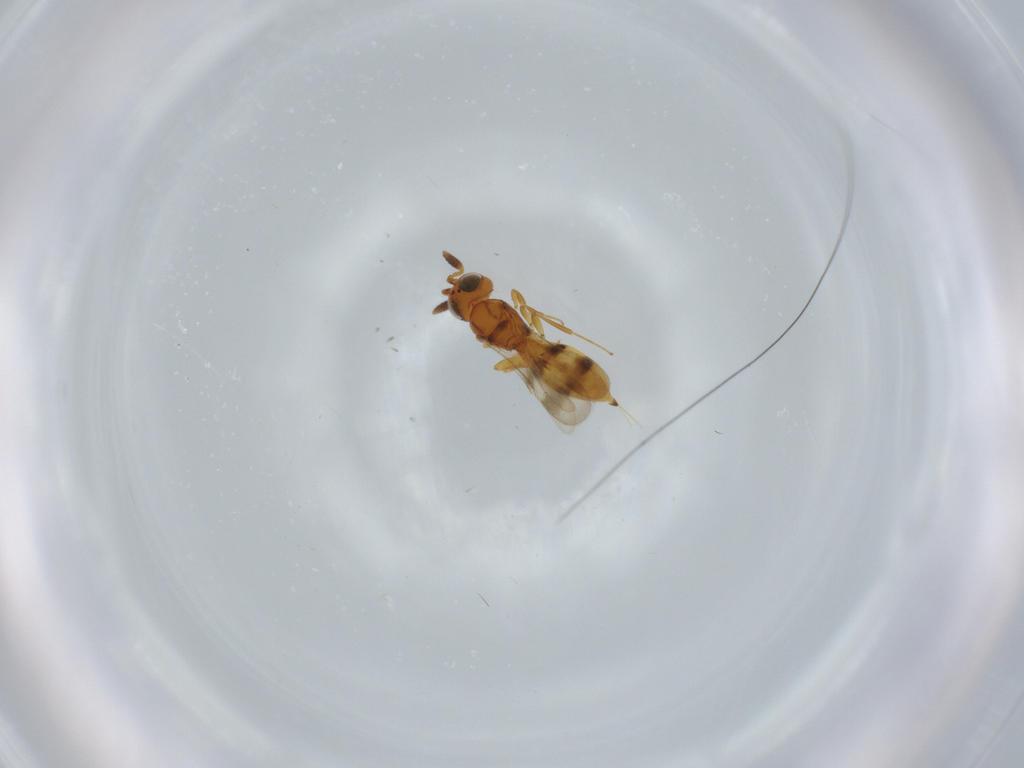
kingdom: Animalia
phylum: Arthropoda
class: Insecta
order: Hymenoptera
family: Scelionidae
